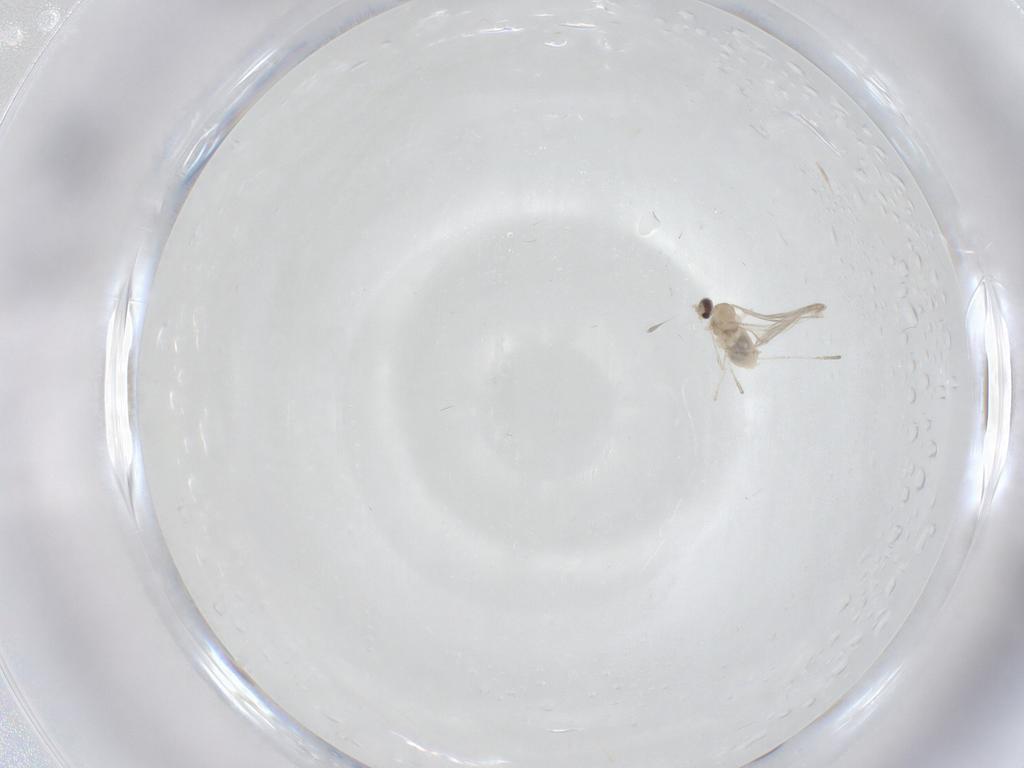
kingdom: Animalia
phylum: Arthropoda
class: Insecta
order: Diptera
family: Cecidomyiidae
